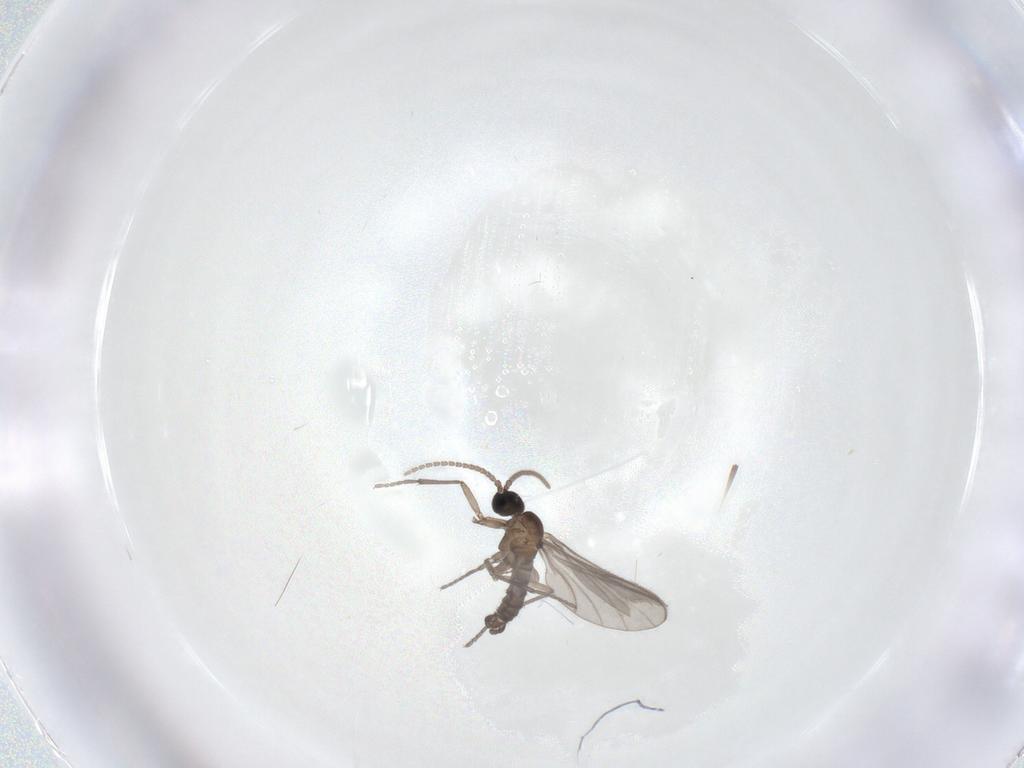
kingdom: Animalia
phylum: Arthropoda
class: Insecta
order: Diptera
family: Sciaridae
